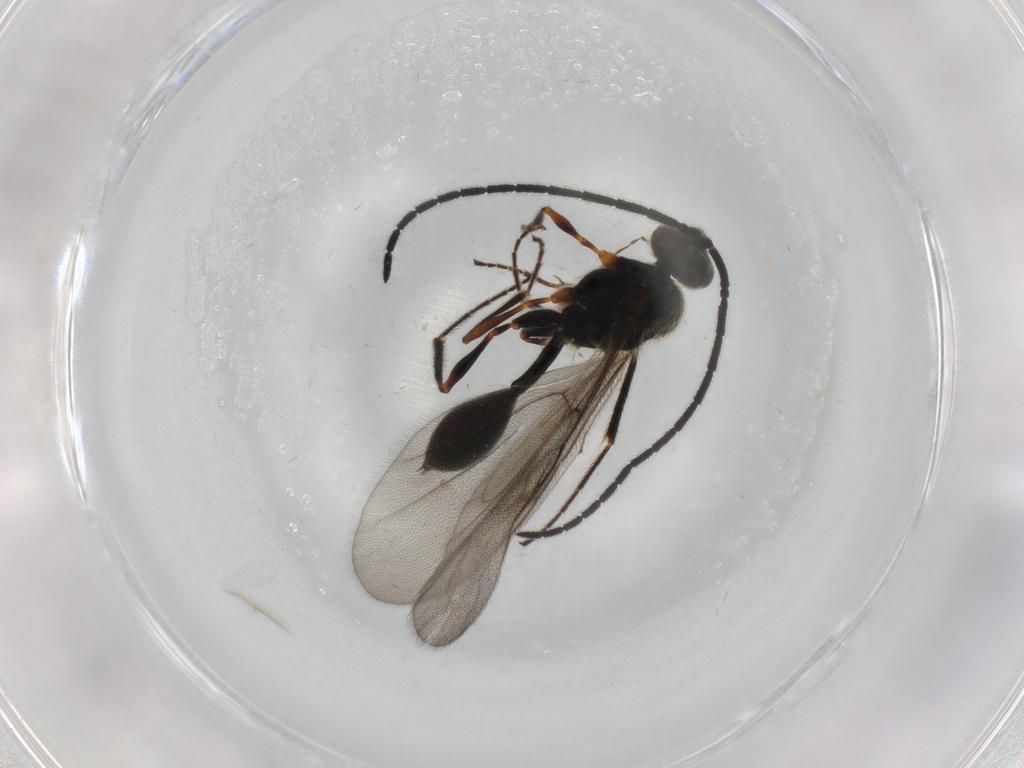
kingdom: Animalia
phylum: Arthropoda
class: Insecta
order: Hymenoptera
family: Diapriidae
